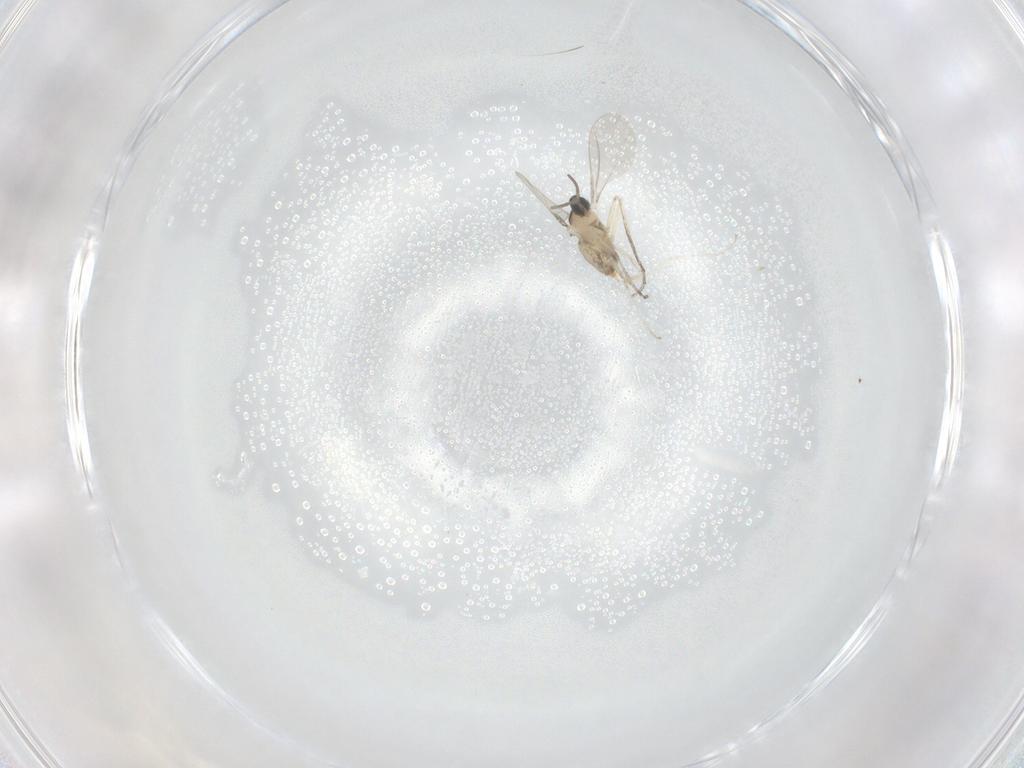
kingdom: Animalia
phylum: Arthropoda
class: Insecta
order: Diptera
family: Cecidomyiidae
